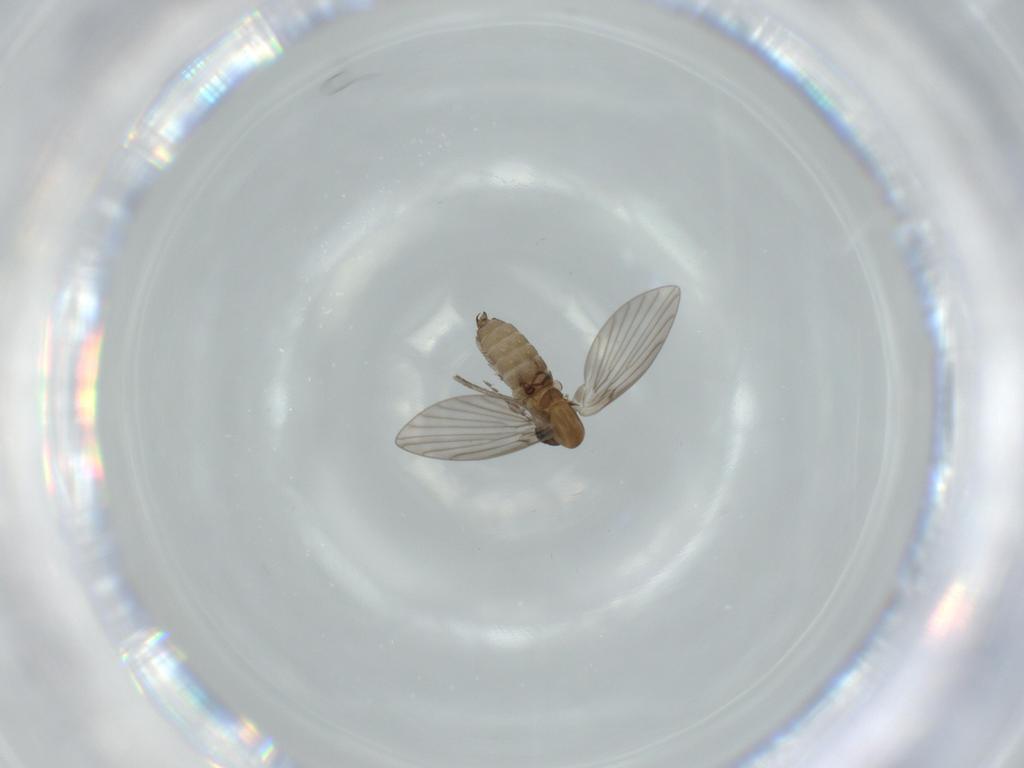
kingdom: Animalia
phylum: Arthropoda
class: Insecta
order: Diptera
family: Psychodidae
